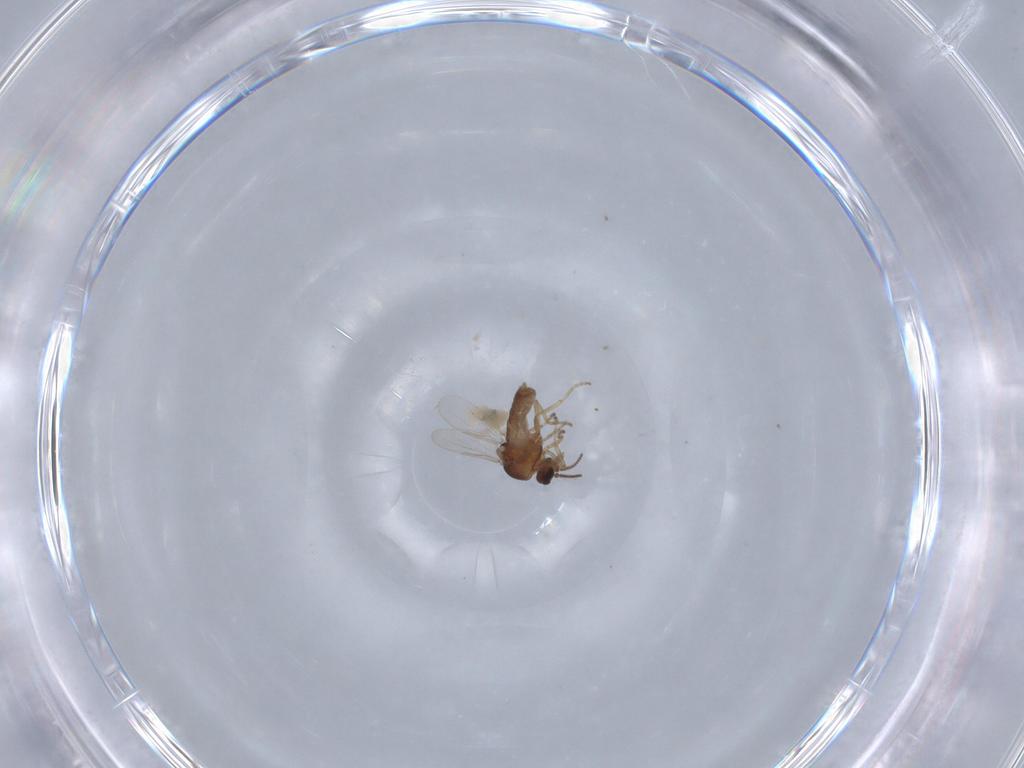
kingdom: Animalia
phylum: Arthropoda
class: Insecta
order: Diptera
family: Ceratopogonidae
